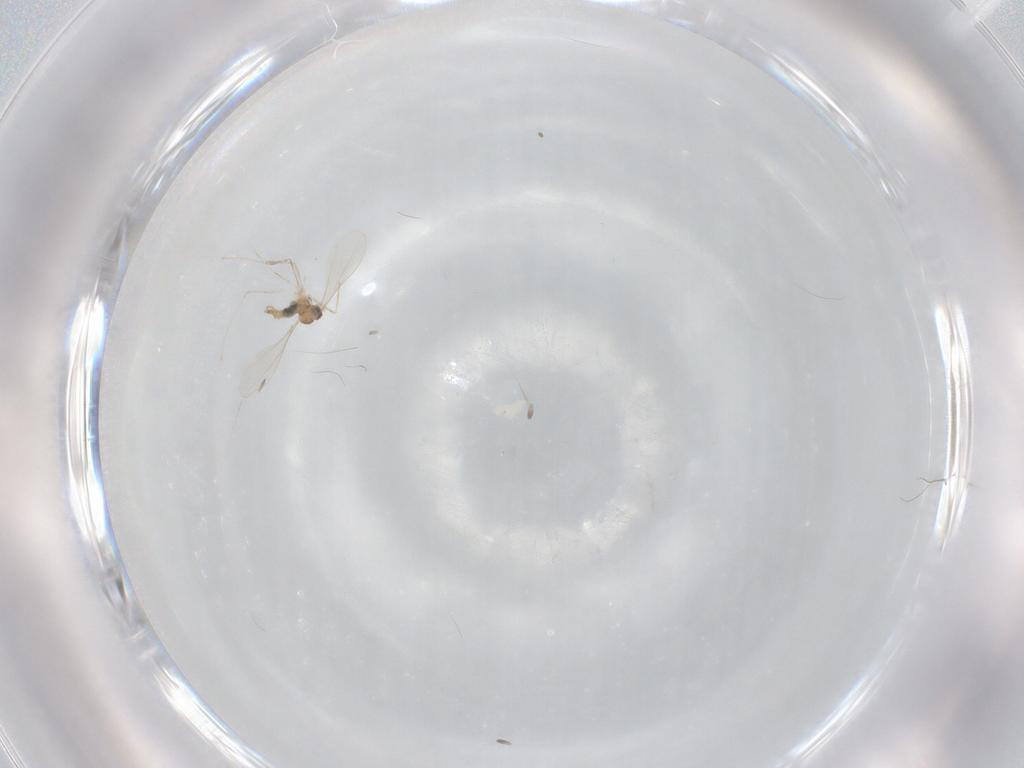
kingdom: Animalia
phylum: Arthropoda
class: Insecta
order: Diptera
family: Cecidomyiidae
